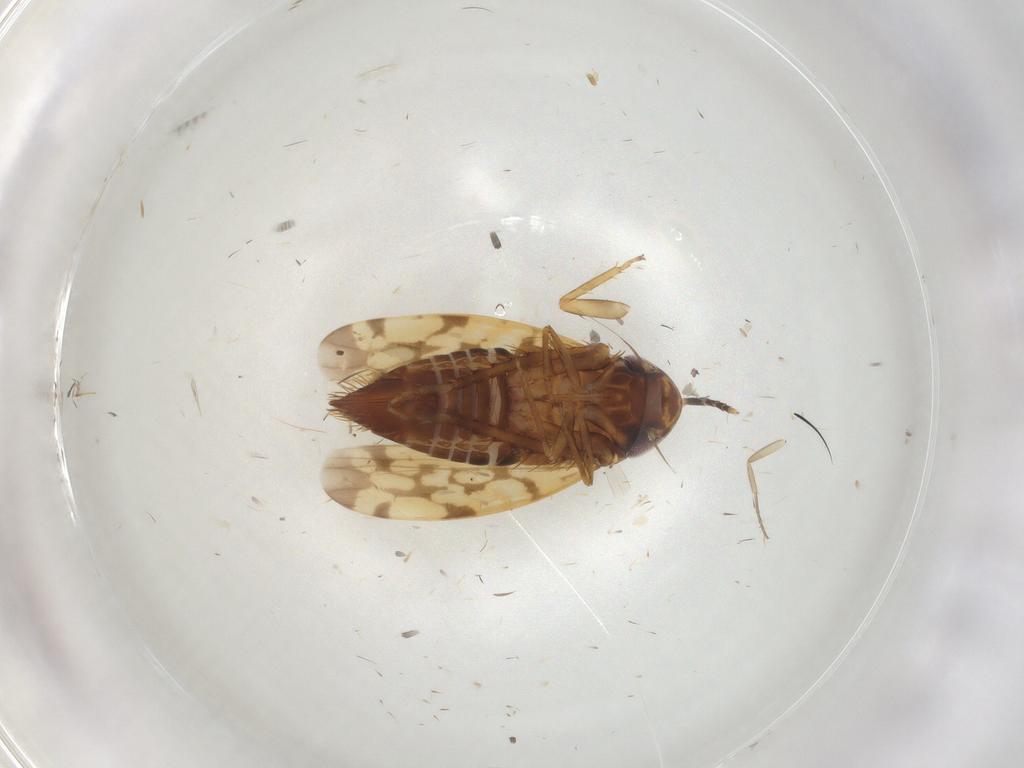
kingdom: Animalia
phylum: Arthropoda
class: Insecta
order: Hemiptera
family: Cicadellidae
